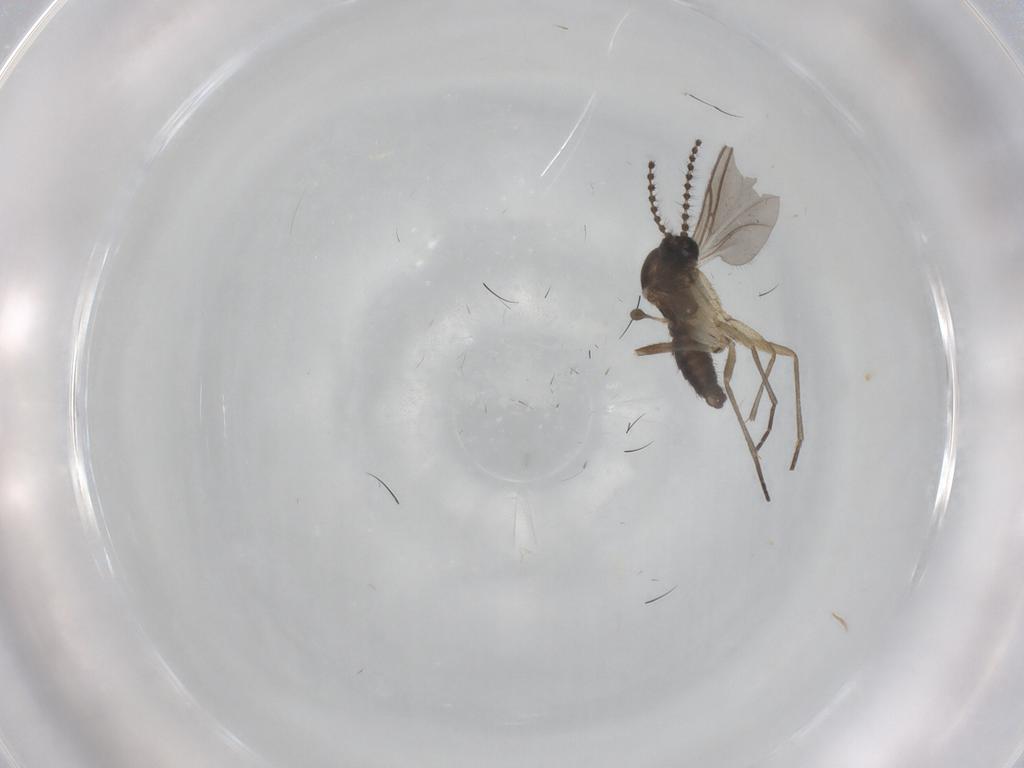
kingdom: Animalia
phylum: Arthropoda
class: Insecta
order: Diptera
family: Sciaridae
